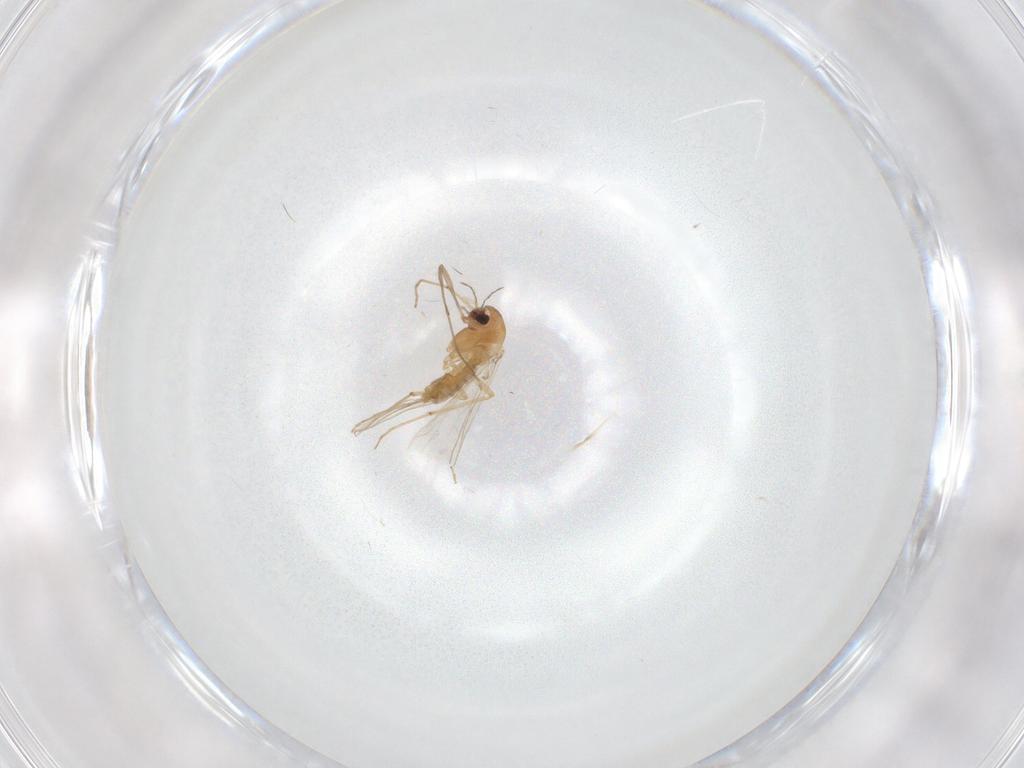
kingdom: Animalia
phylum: Arthropoda
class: Insecta
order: Diptera
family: Chironomidae
